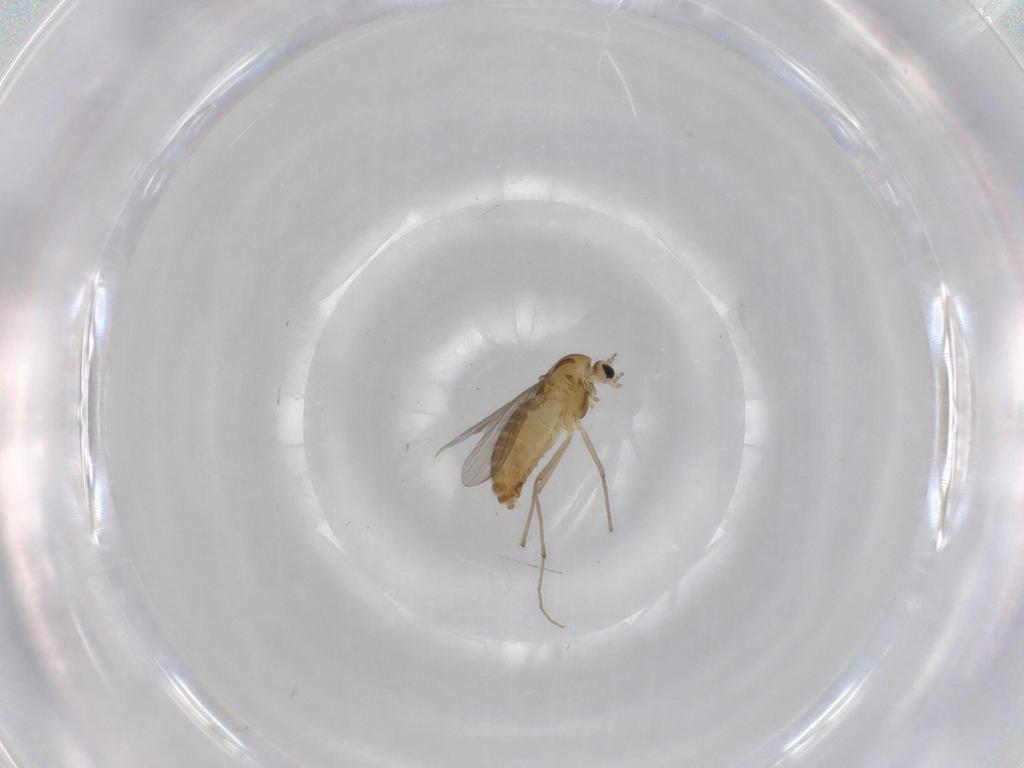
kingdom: Animalia
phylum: Arthropoda
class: Insecta
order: Diptera
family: Chironomidae
